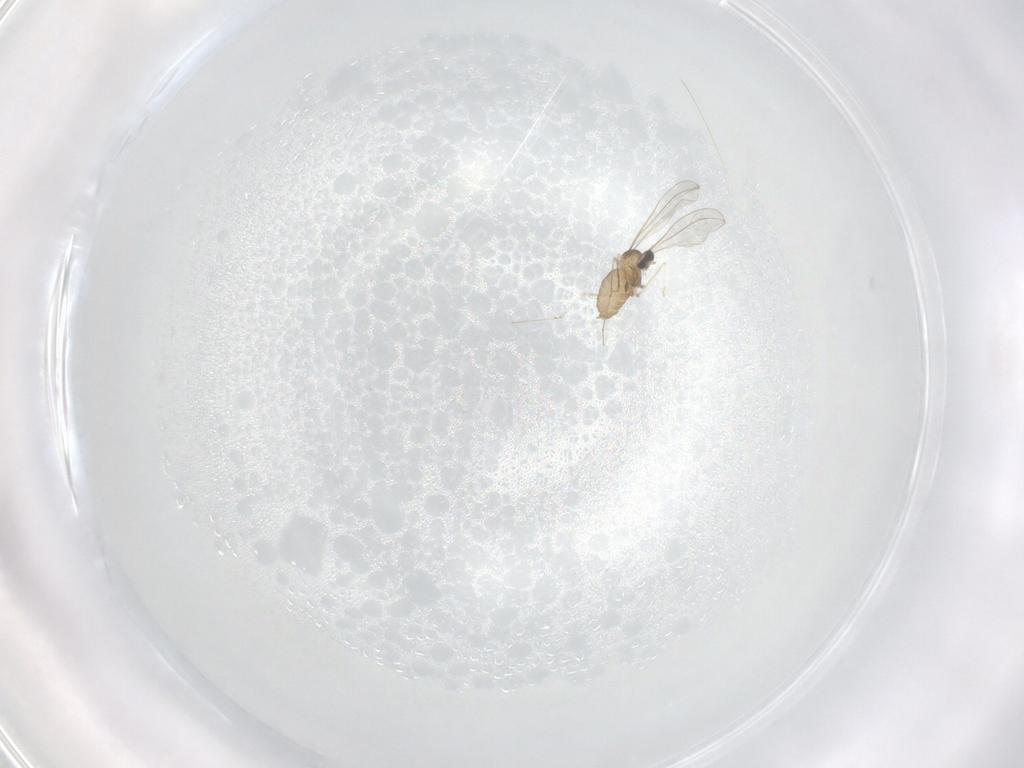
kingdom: Animalia
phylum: Arthropoda
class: Insecta
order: Diptera
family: Cecidomyiidae
